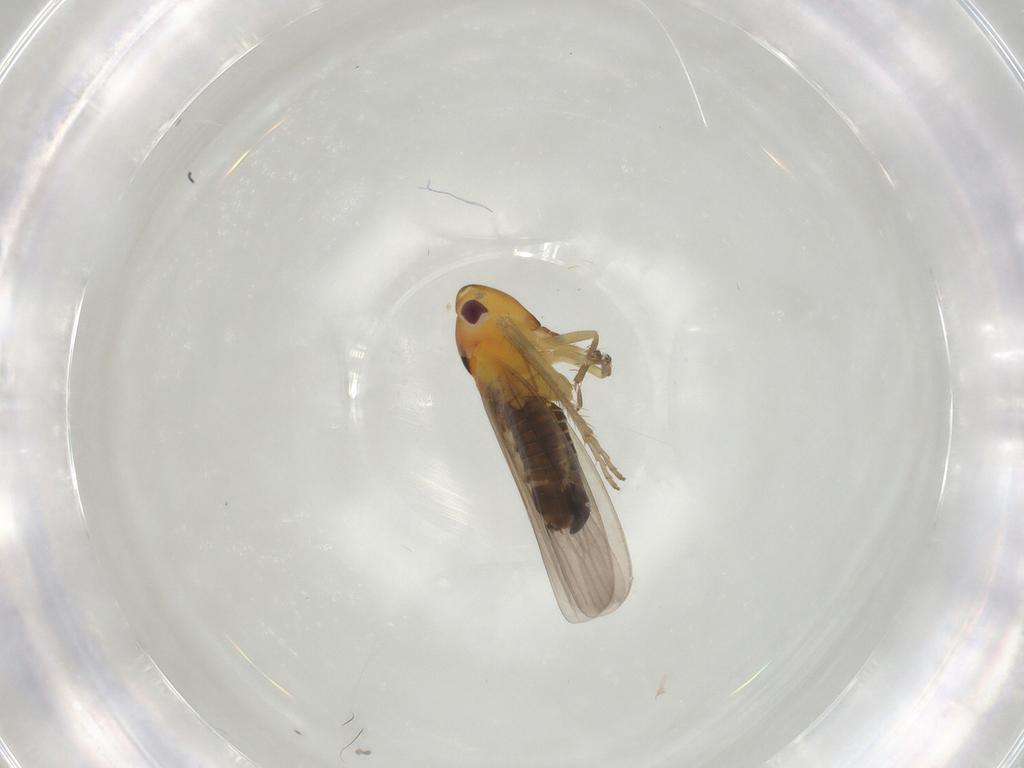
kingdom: Animalia
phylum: Arthropoda
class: Insecta
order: Hemiptera
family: Cicadellidae
